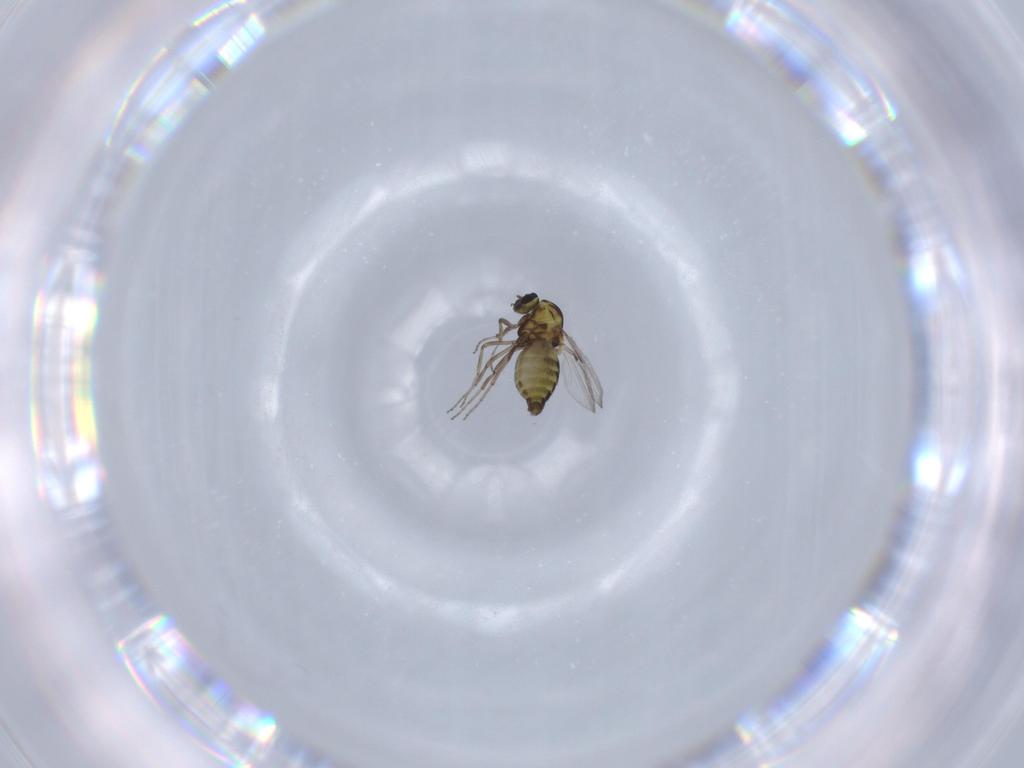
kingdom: Animalia
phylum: Arthropoda
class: Insecta
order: Diptera
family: Ceratopogonidae
